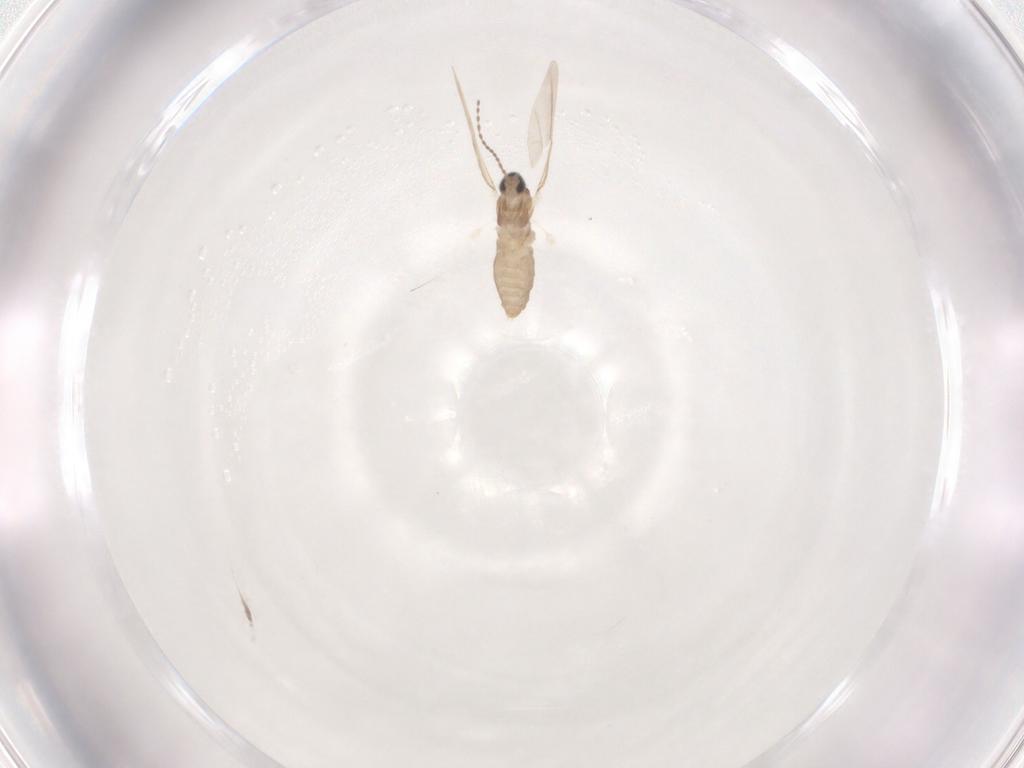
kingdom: Animalia
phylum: Arthropoda
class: Insecta
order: Diptera
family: Cecidomyiidae
